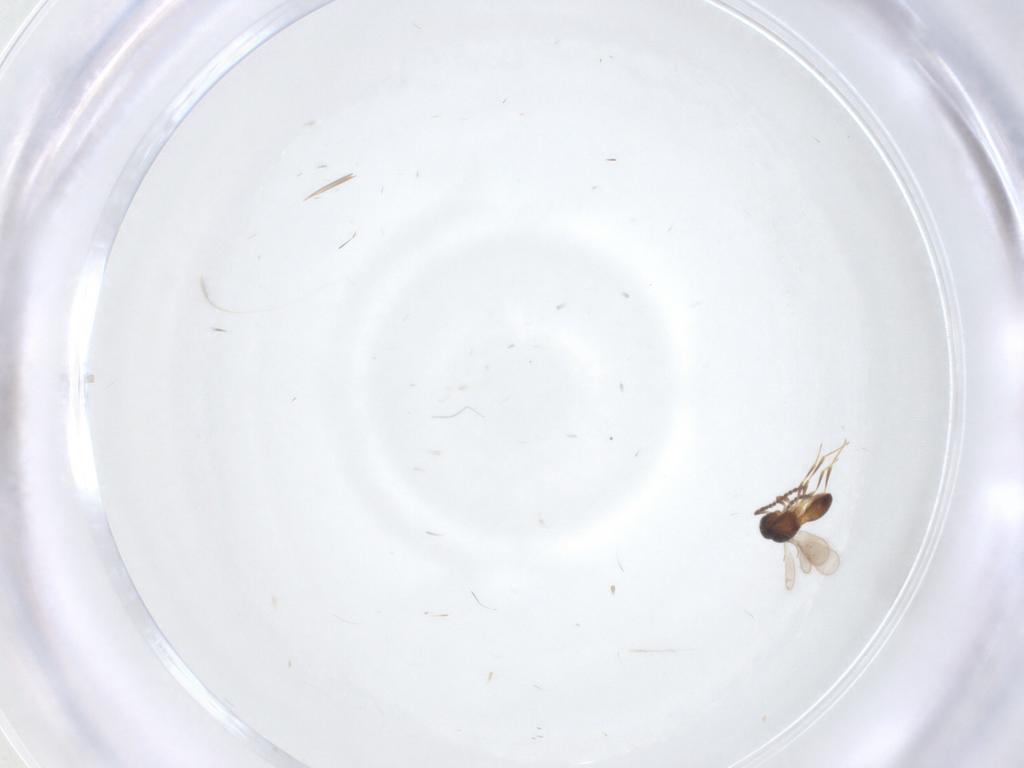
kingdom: Animalia
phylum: Arthropoda
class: Insecta
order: Hymenoptera
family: Scelionidae
